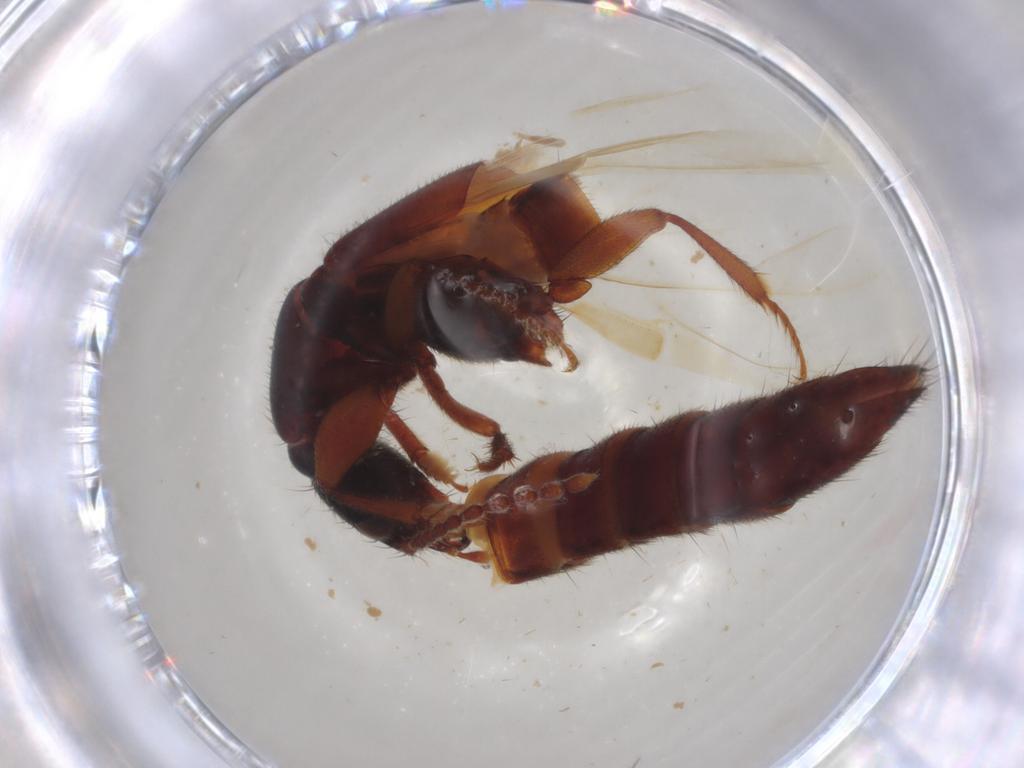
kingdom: Animalia
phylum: Arthropoda
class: Insecta
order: Coleoptera
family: Staphylinidae
